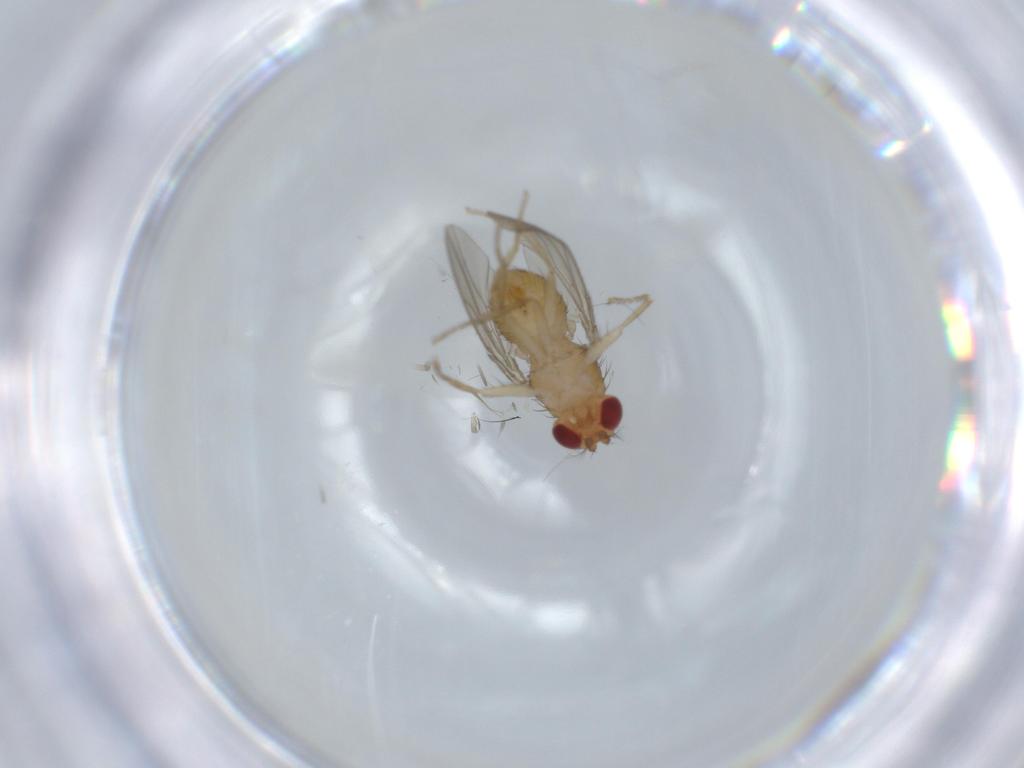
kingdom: Animalia
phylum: Arthropoda
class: Insecta
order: Diptera
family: Drosophilidae
